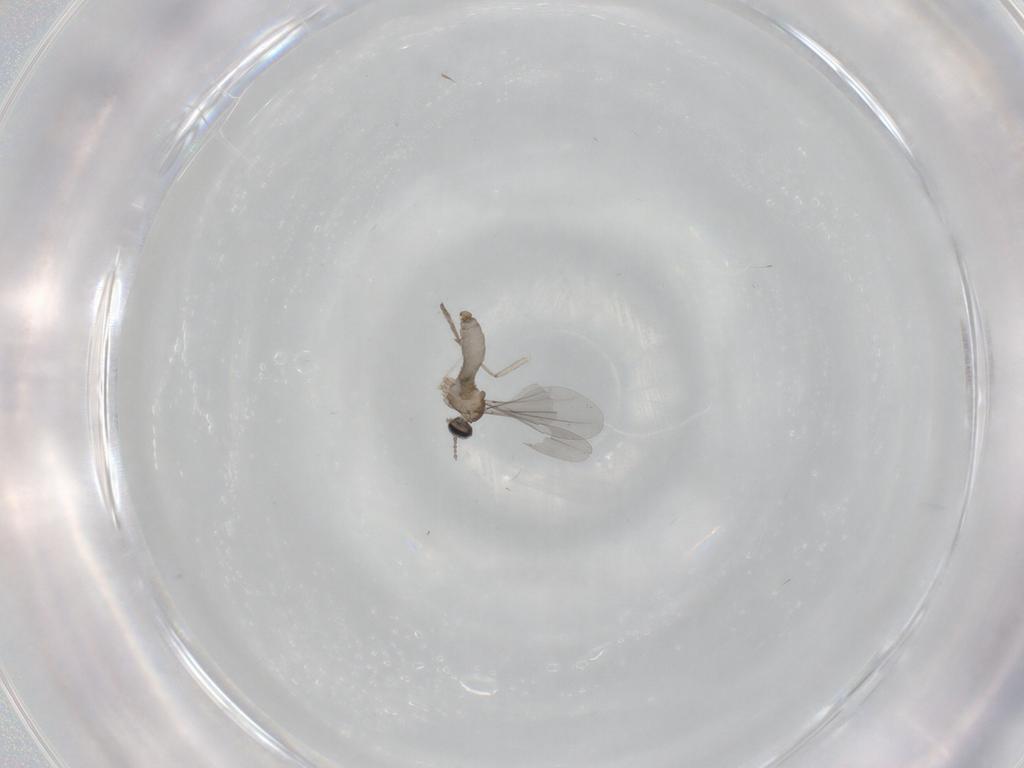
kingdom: Animalia
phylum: Arthropoda
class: Insecta
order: Diptera
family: Cecidomyiidae
